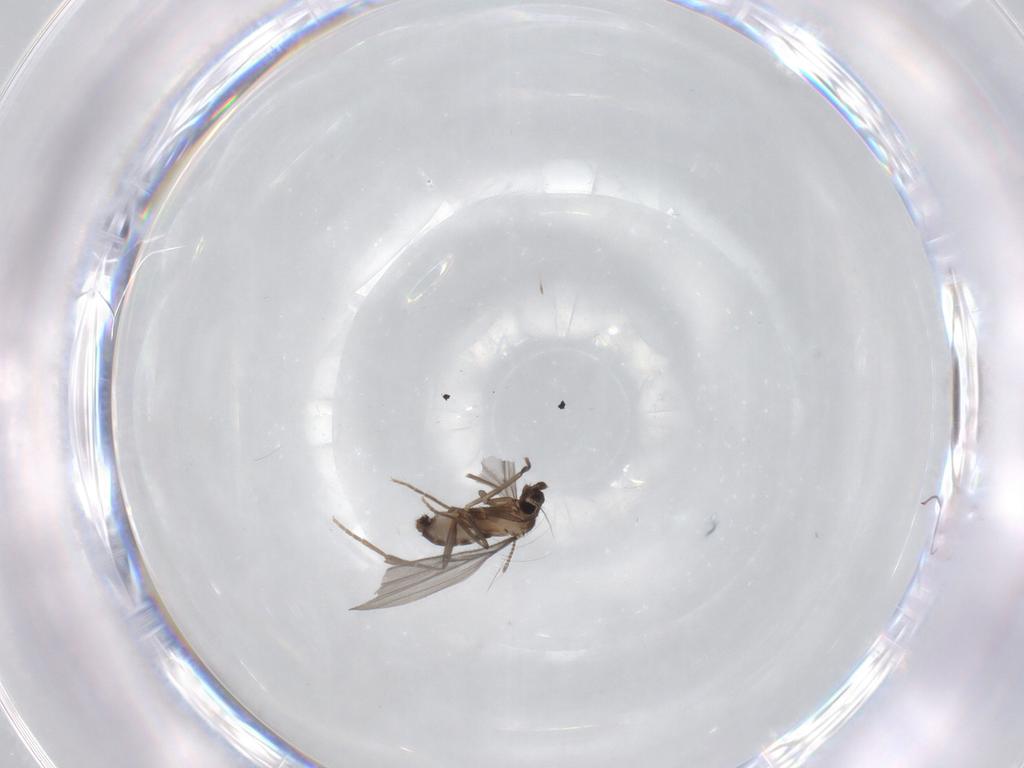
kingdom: Animalia
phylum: Arthropoda
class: Insecta
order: Diptera
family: Phoridae
